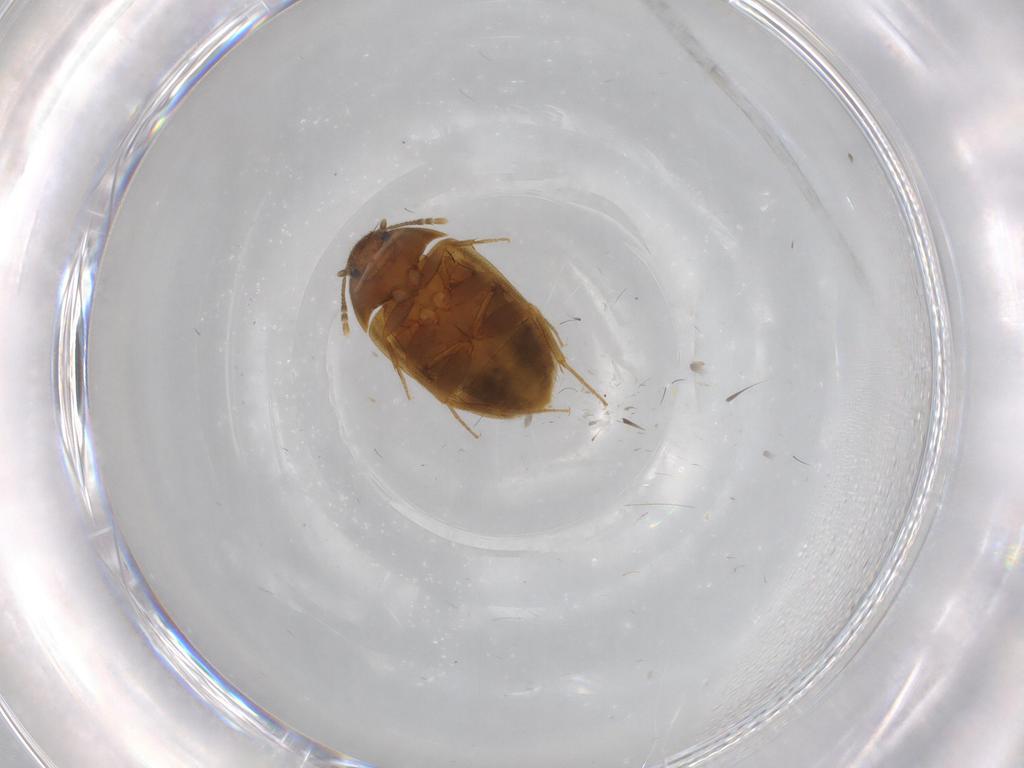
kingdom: Animalia
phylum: Arthropoda
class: Insecta
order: Coleoptera
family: Mycetophagidae
